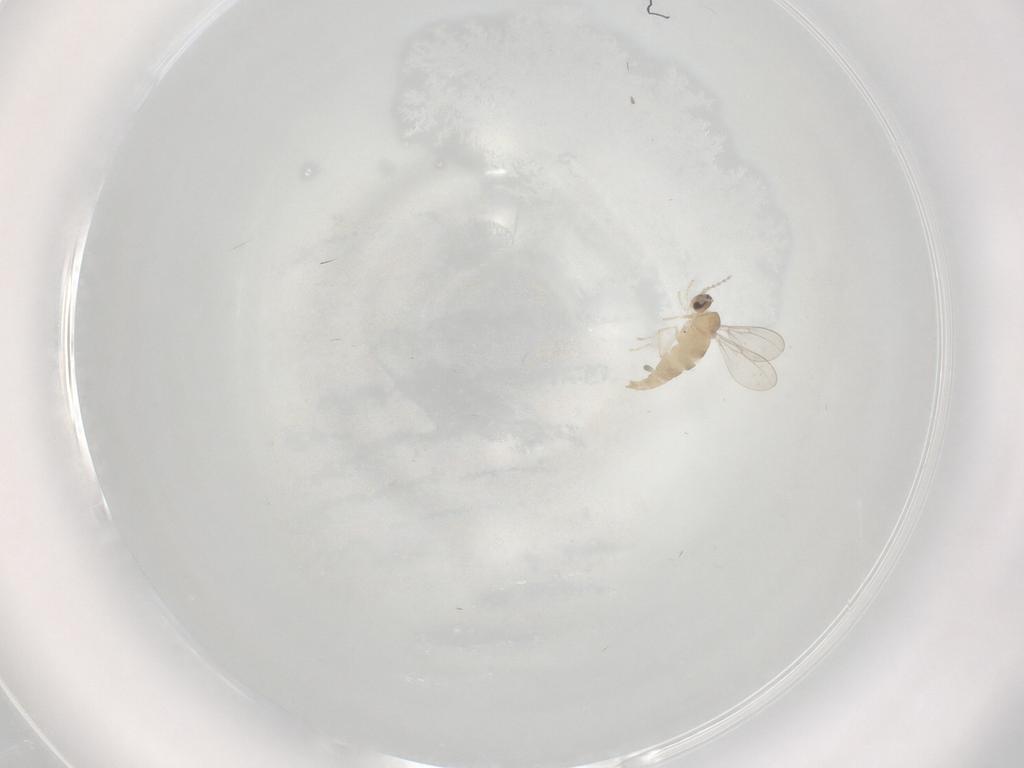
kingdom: Animalia
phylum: Arthropoda
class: Insecta
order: Diptera
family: Cecidomyiidae
